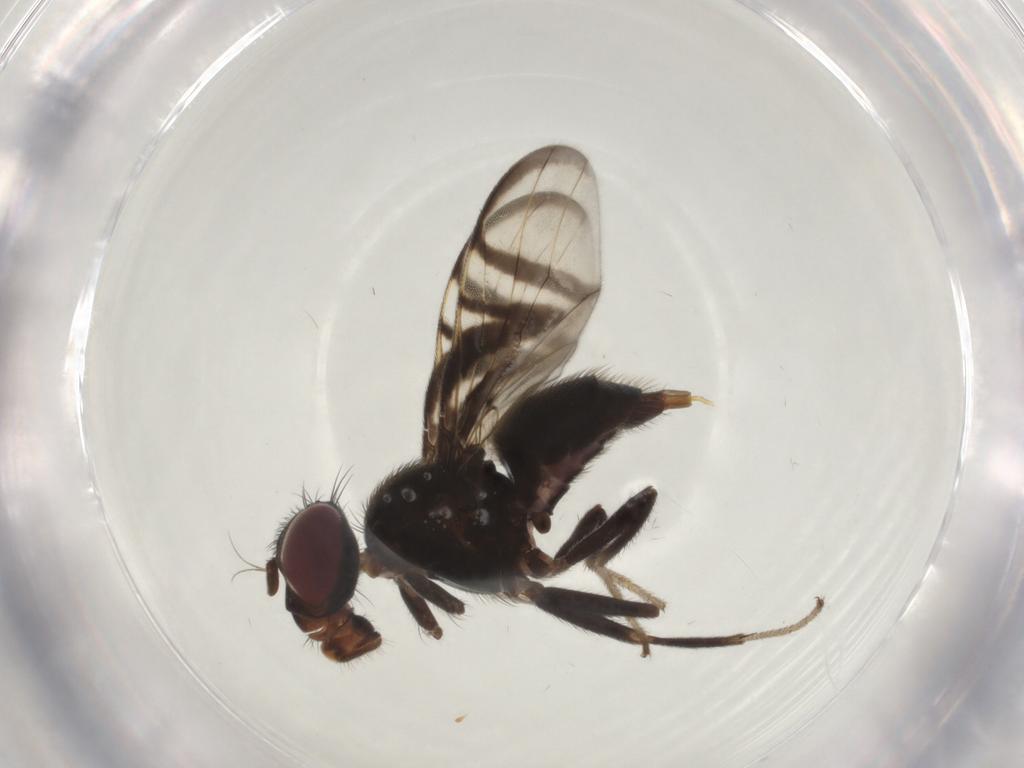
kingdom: Animalia
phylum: Arthropoda
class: Insecta
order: Diptera
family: Platystomatidae
